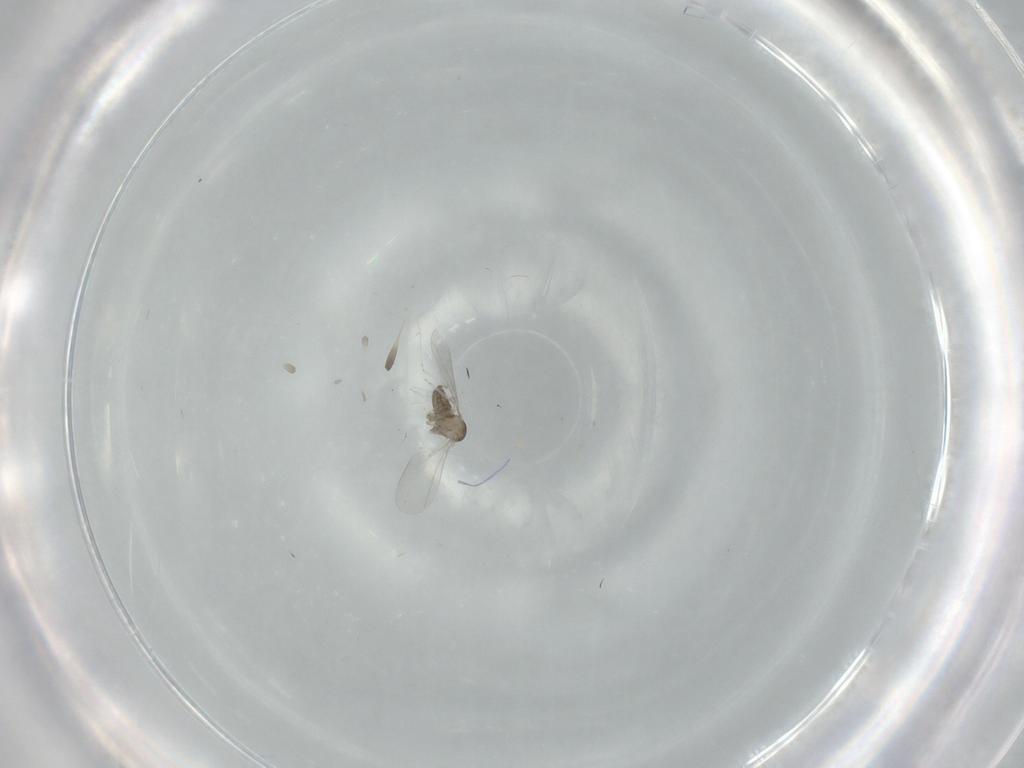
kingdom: Animalia
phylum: Arthropoda
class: Insecta
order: Diptera
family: Cecidomyiidae
